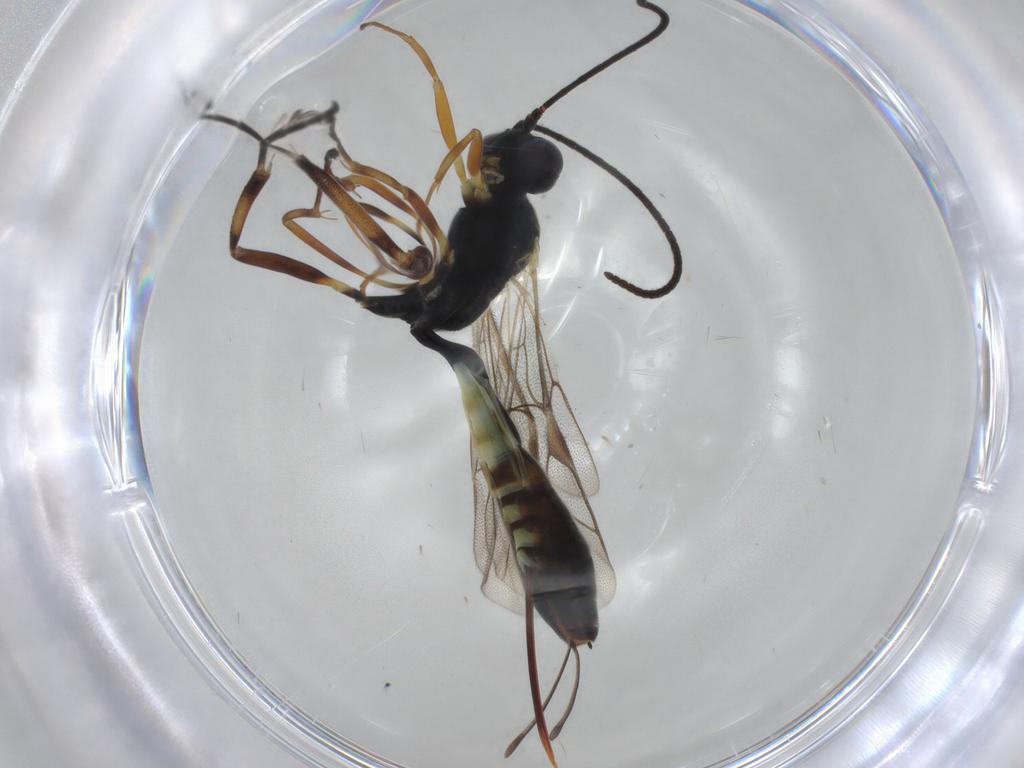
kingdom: Animalia
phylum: Arthropoda
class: Insecta
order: Hymenoptera
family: Ichneumonidae
